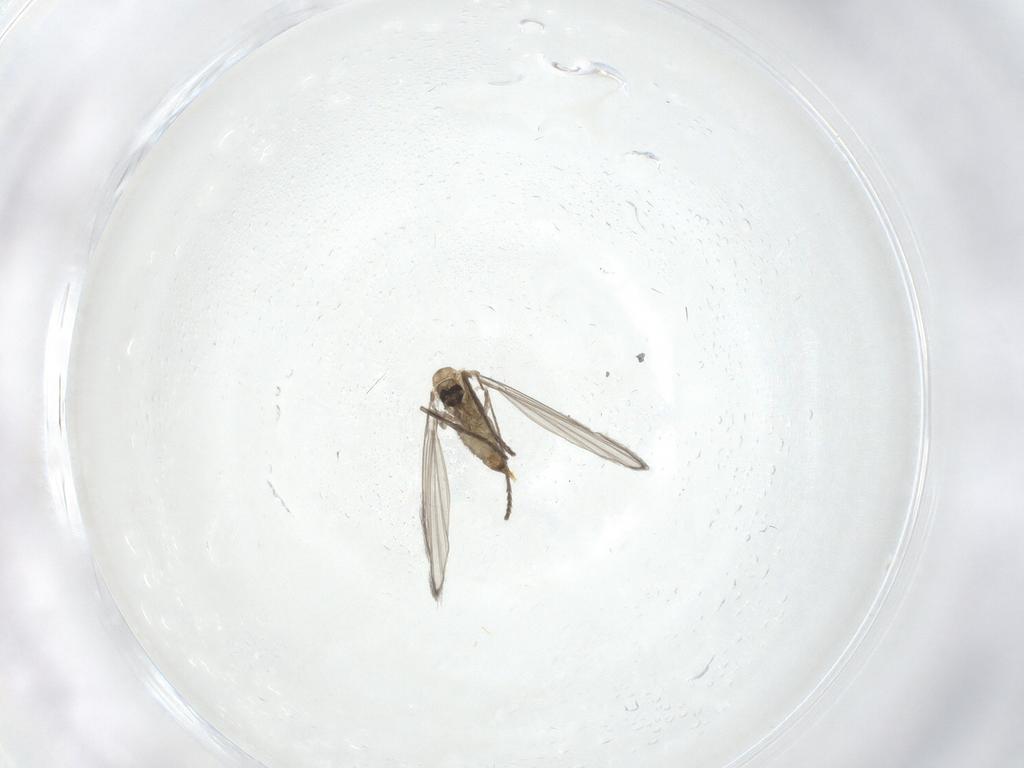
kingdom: Animalia
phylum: Arthropoda
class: Insecta
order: Diptera
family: Psychodidae
